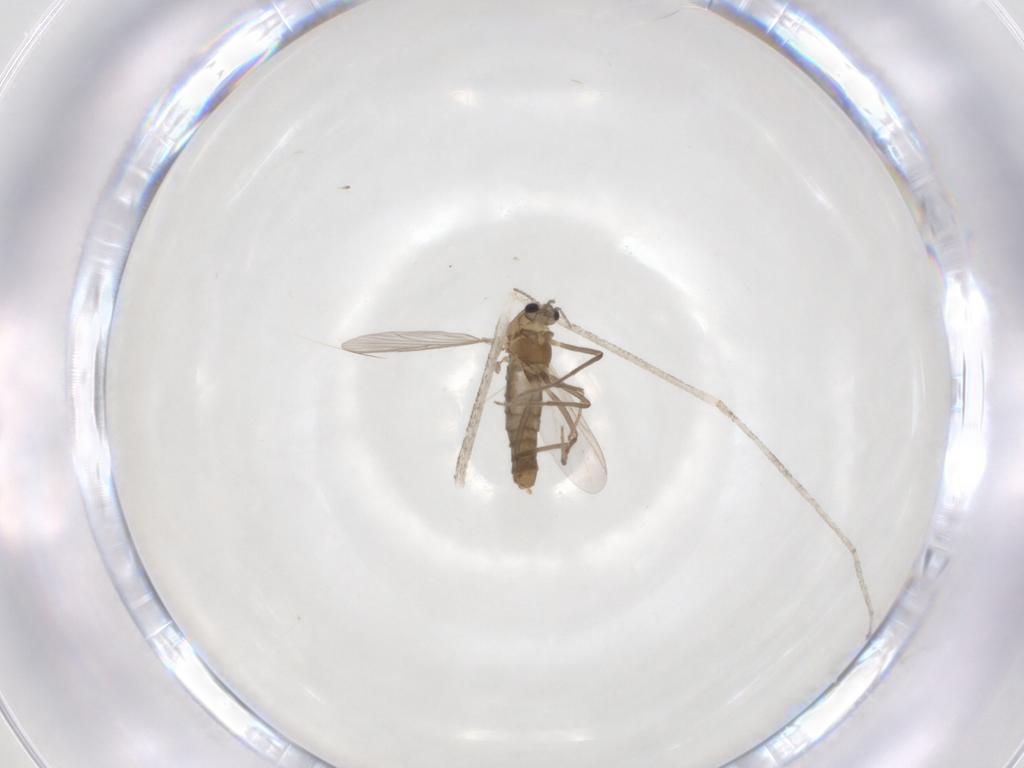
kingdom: Animalia
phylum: Arthropoda
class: Insecta
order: Diptera
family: Chironomidae
